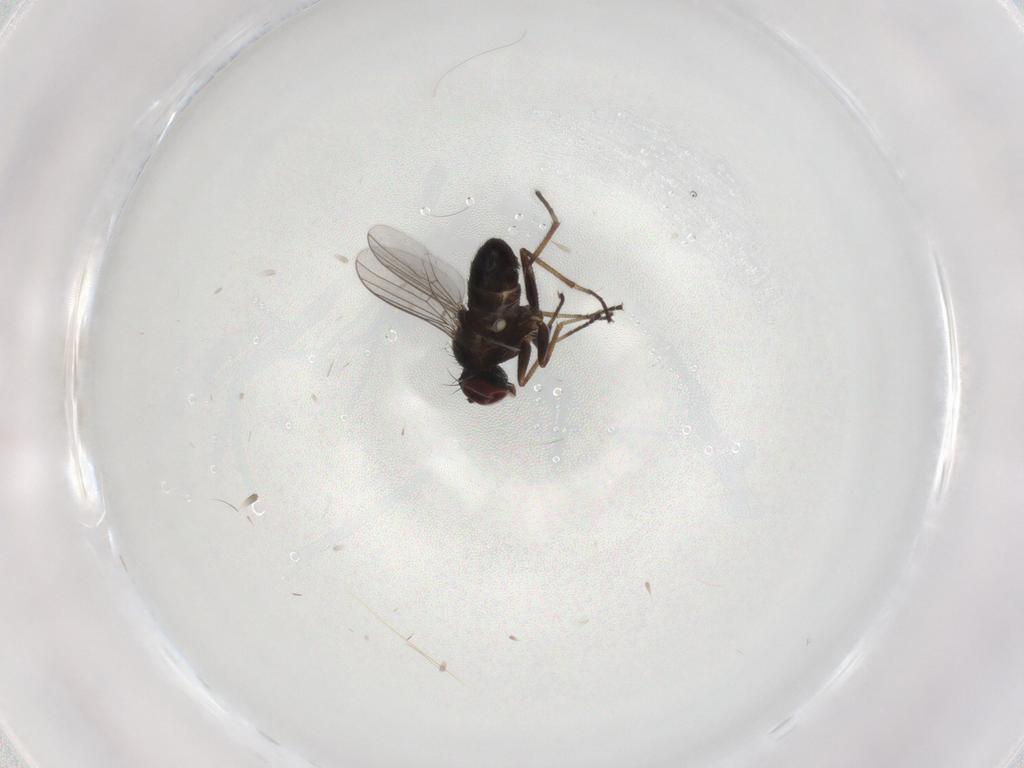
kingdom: Animalia
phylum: Arthropoda
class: Insecta
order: Diptera
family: Dolichopodidae
